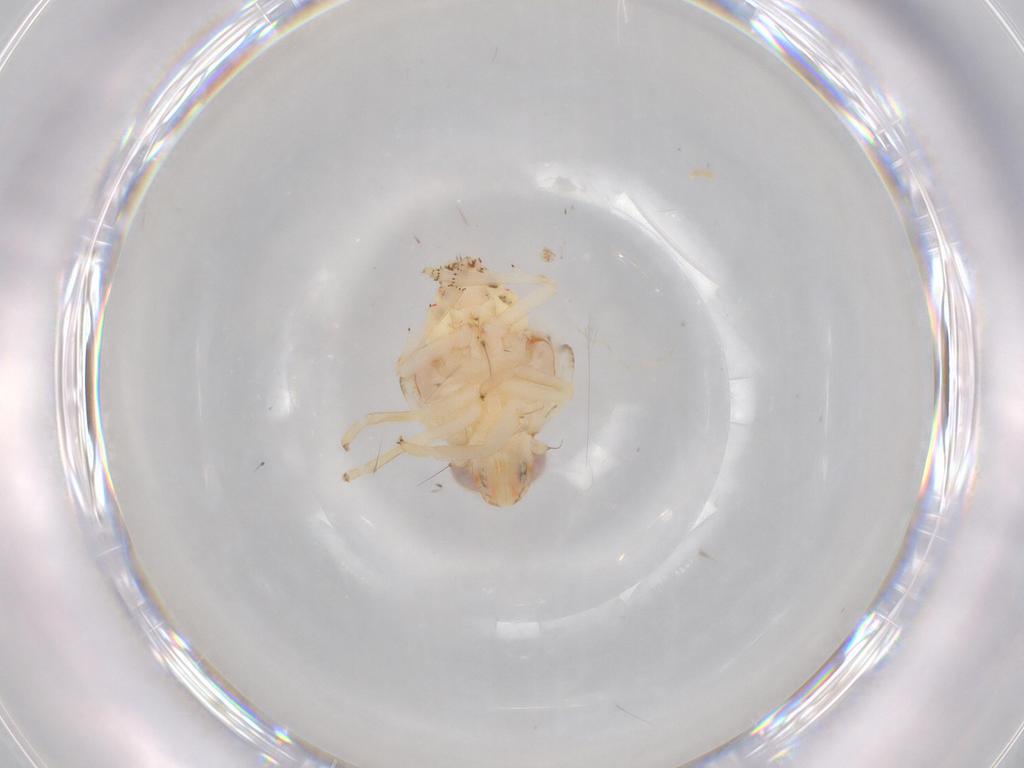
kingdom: Animalia
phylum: Arthropoda
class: Insecta
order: Hemiptera
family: Nogodinidae
